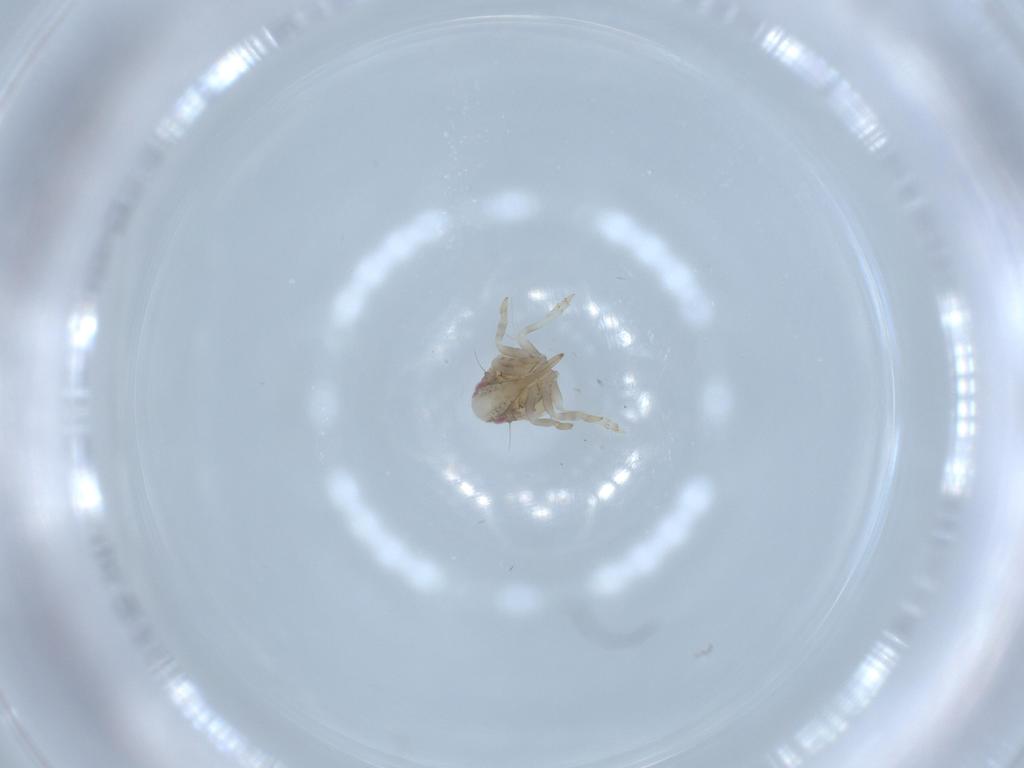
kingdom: Animalia
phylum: Arthropoda
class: Insecta
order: Hemiptera
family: Acanaloniidae
